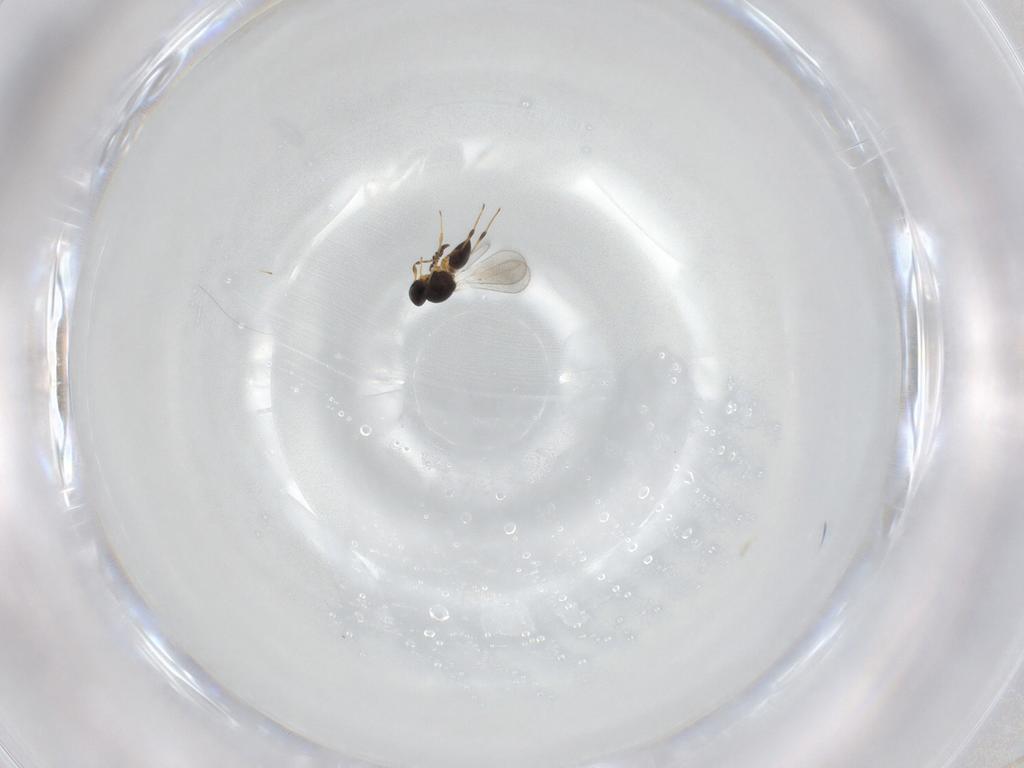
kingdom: Animalia
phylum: Arthropoda
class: Insecta
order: Hymenoptera
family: Platygastridae
